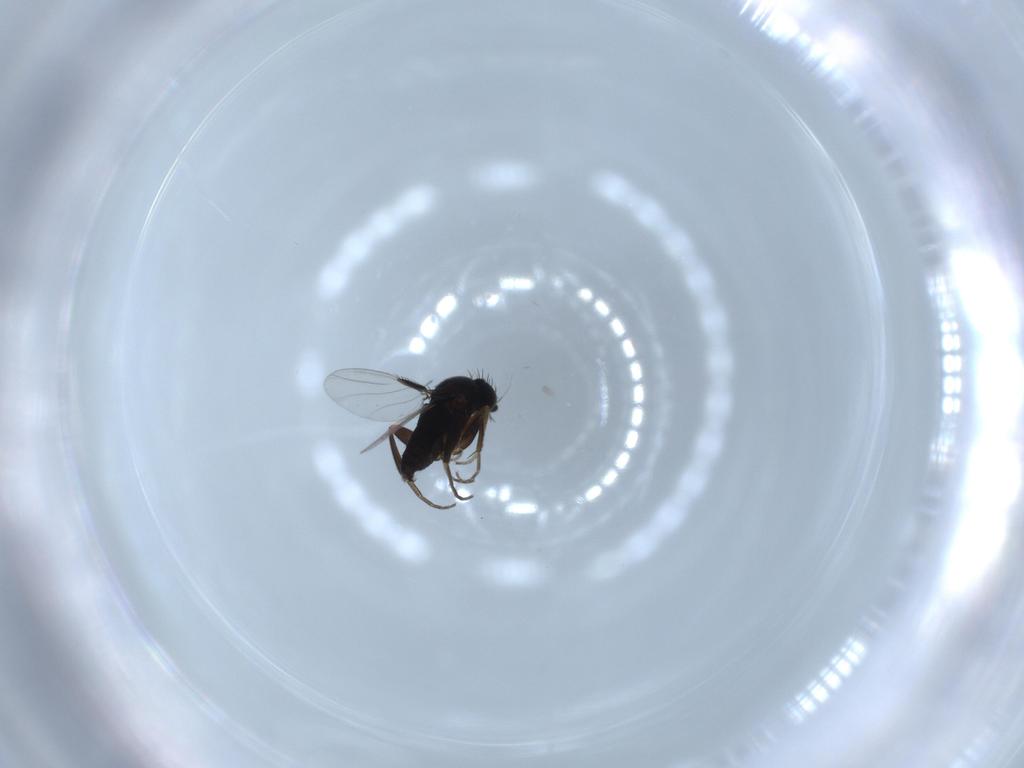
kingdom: Animalia
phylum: Arthropoda
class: Insecta
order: Diptera
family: Phoridae
